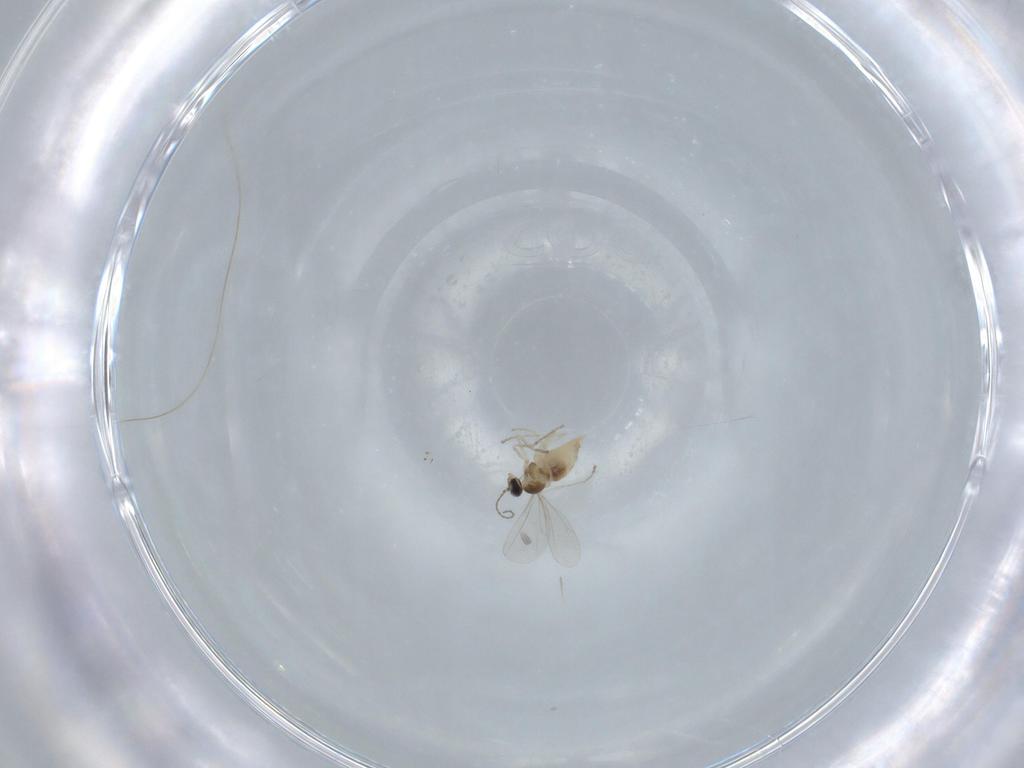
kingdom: Animalia
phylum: Arthropoda
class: Insecta
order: Diptera
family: Cecidomyiidae
